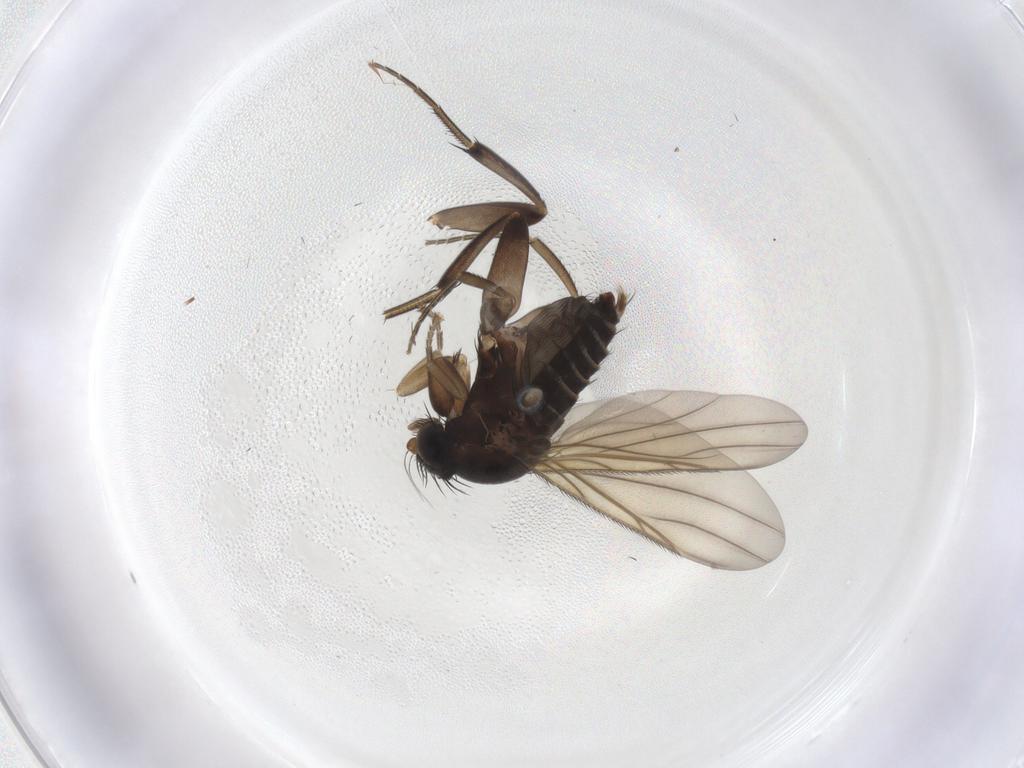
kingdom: Animalia
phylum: Arthropoda
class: Insecta
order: Diptera
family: Phoridae
